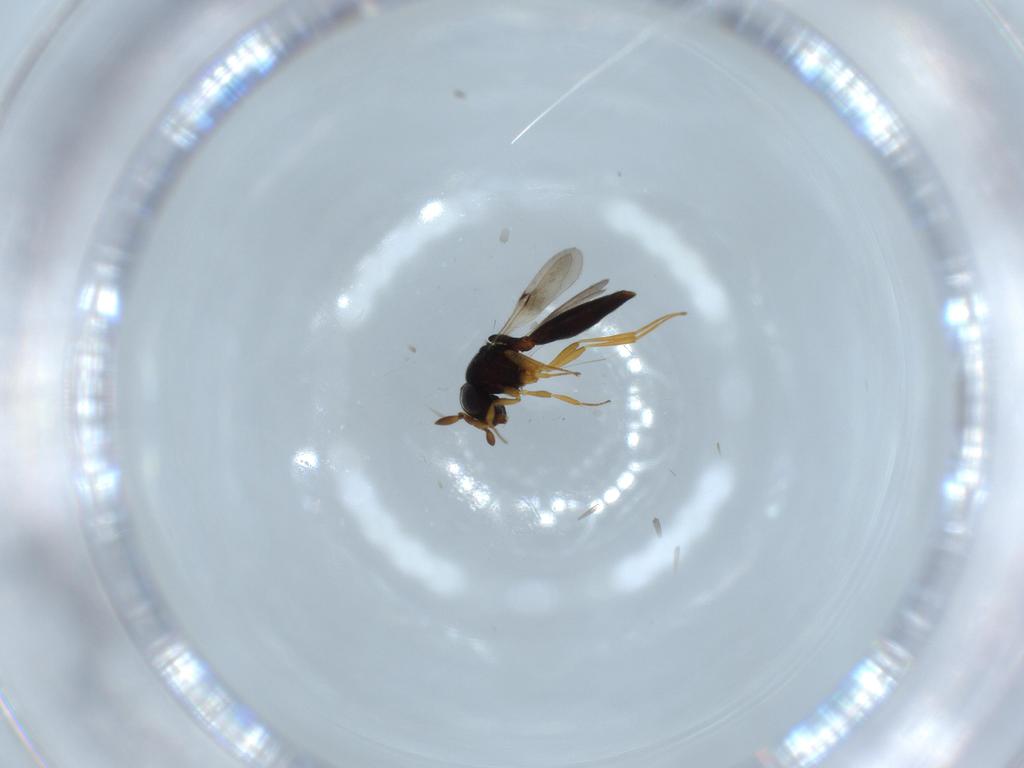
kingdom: Animalia
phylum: Arthropoda
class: Insecta
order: Hymenoptera
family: Scelionidae
